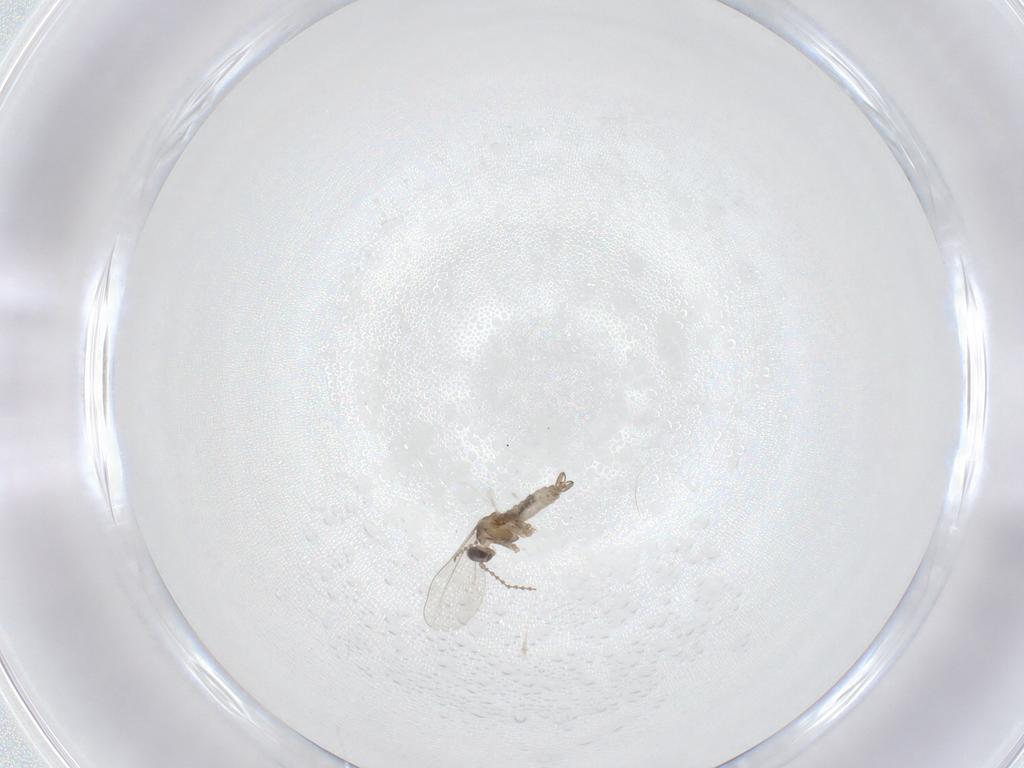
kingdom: Animalia
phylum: Arthropoda
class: Insecta
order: Diptera
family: Cecidomyiidae
